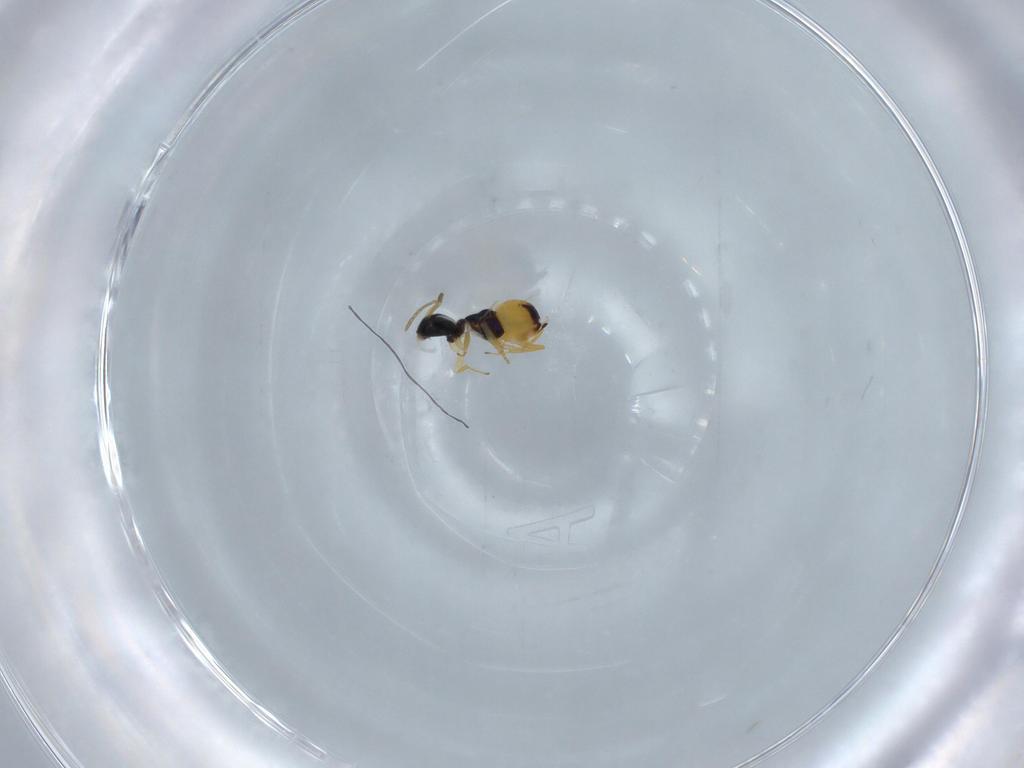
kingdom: Animalia
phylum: Arthropoda
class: Insecta
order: Hymenoptera
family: Encyrtidae
